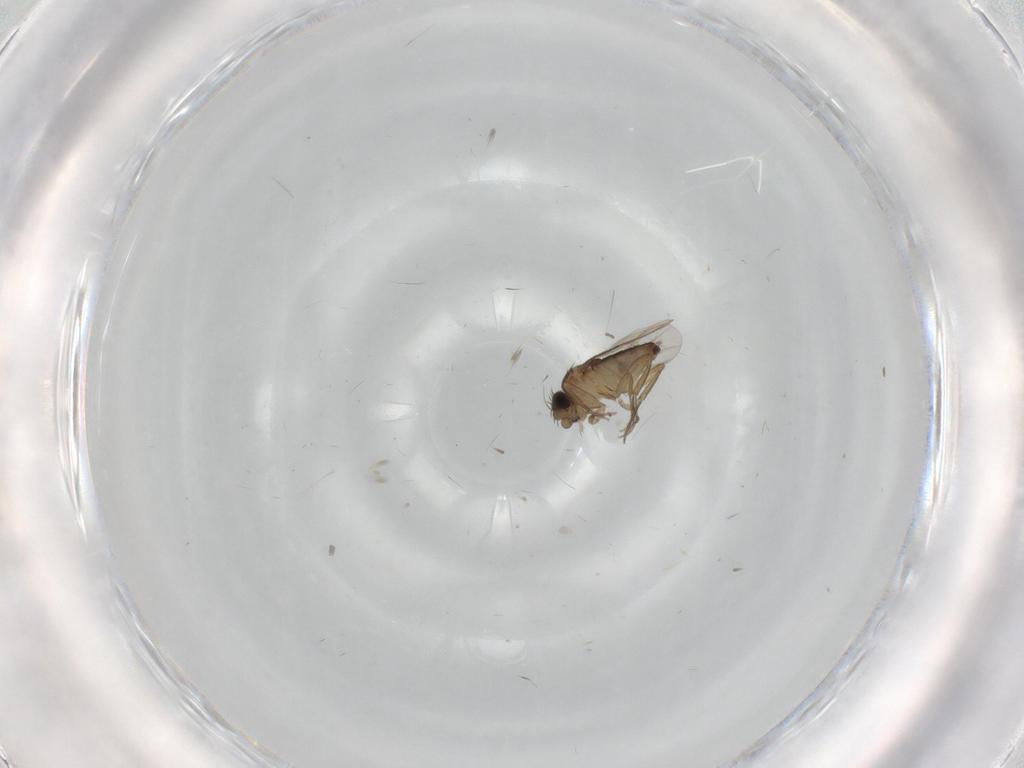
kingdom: Animalia
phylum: Arthropoda
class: Insecta
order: Diptera
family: Phoridae
